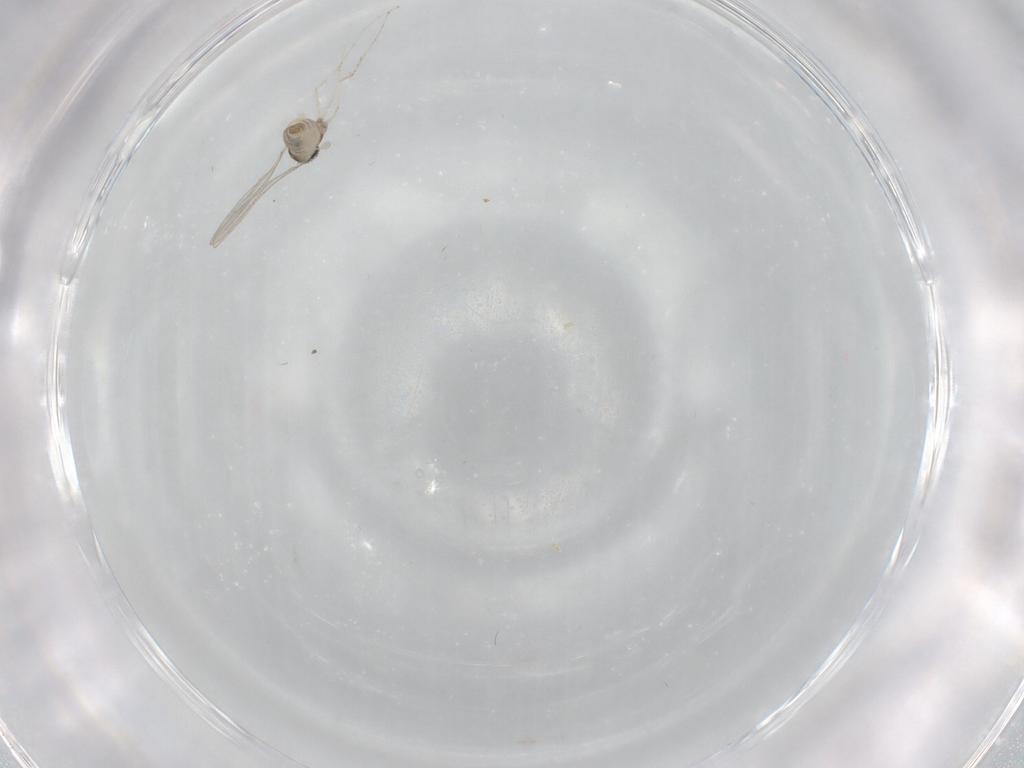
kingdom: Animalia
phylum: Arthropoda
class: Insecta
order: Diptera
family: Cecidomyiidae
